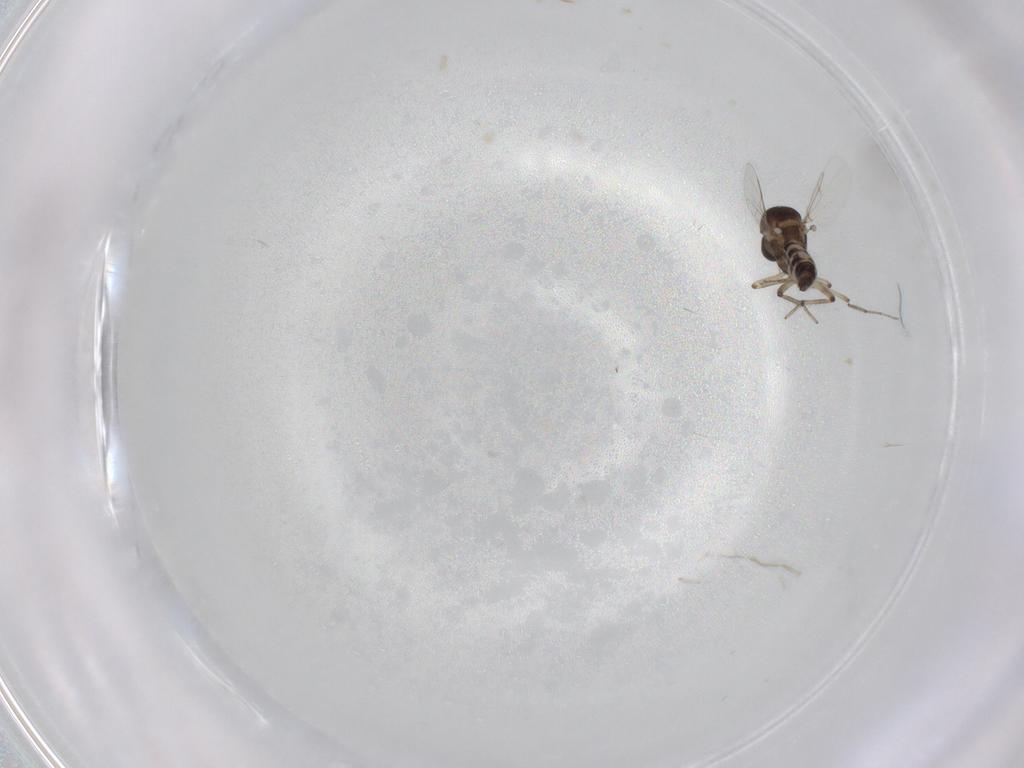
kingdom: Animalia
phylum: Arthropoda
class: Insecta
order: Diptera
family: Ceratopogonidae
